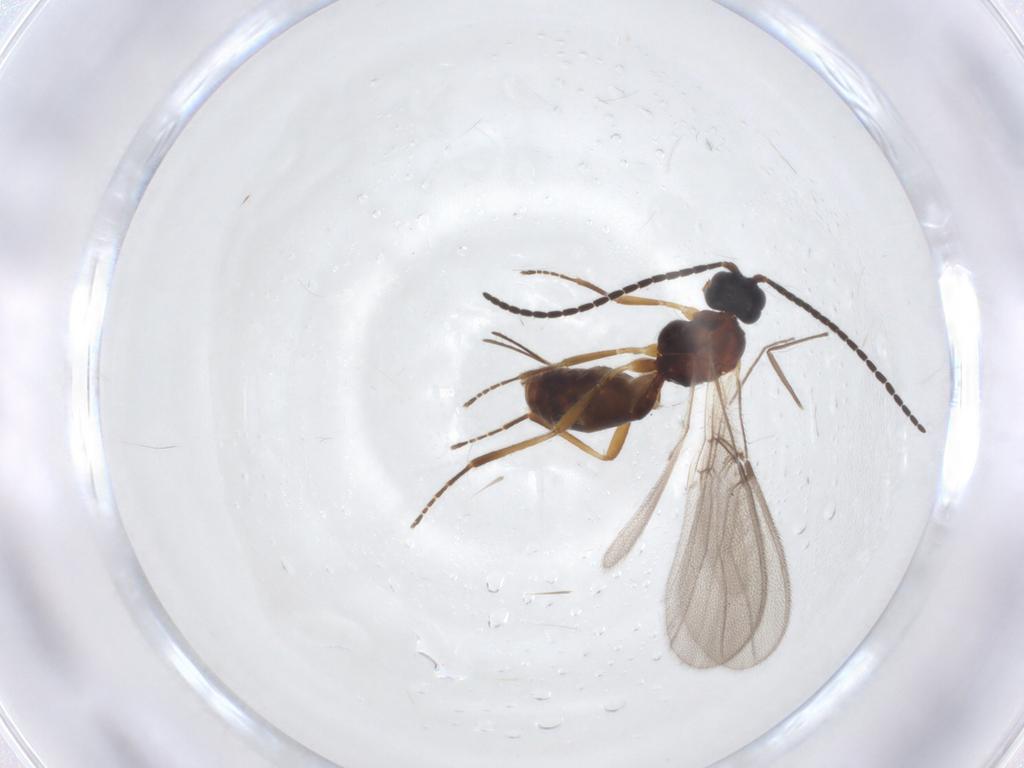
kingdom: Animalia
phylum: Arthropoda
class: Insecta
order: Hymenoptera
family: Braconidae
